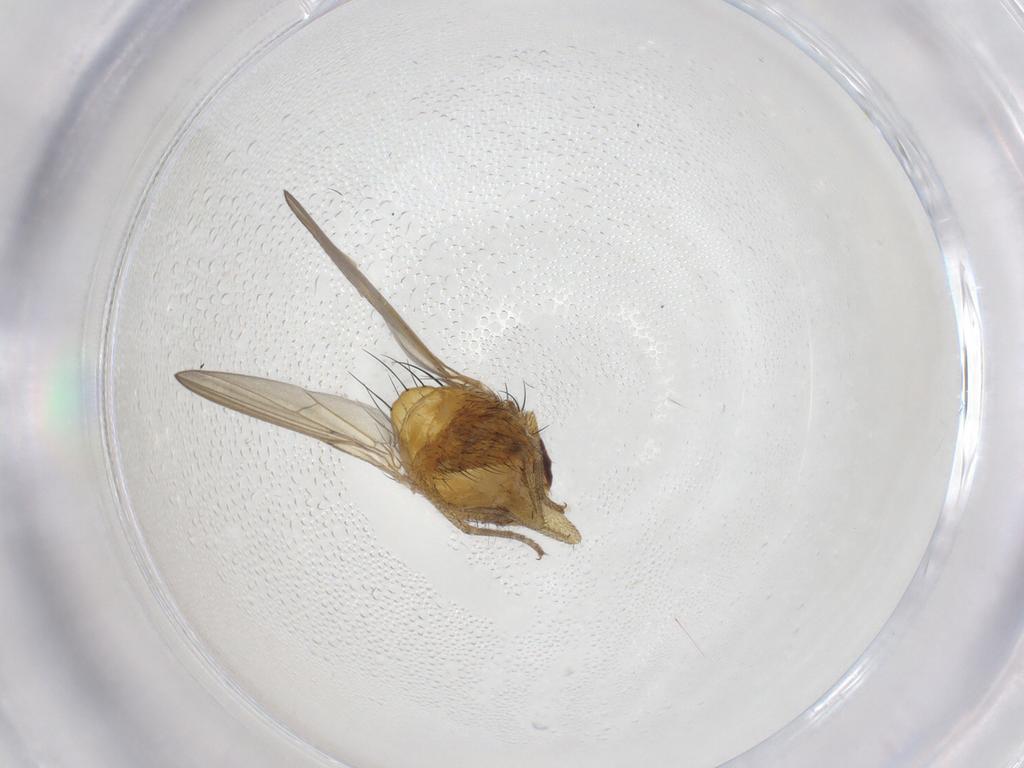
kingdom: Animalia
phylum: Arthropoda
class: Insecta
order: Diptera
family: Limoniidae
